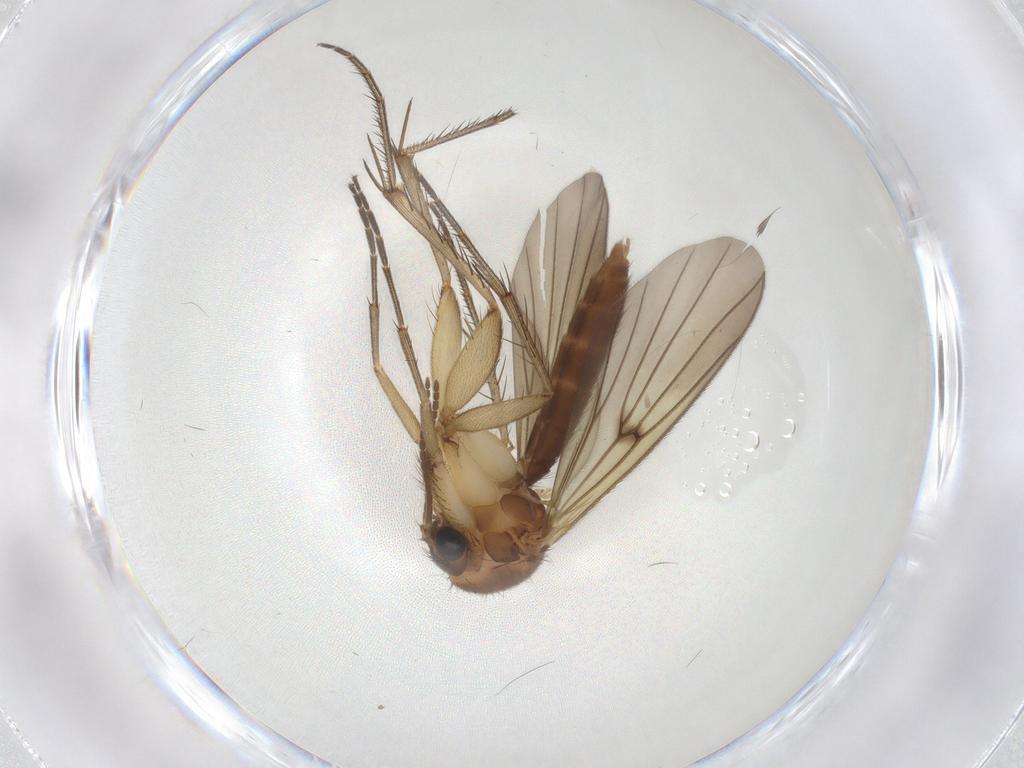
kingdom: Animalia
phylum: Arthropoda
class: Insecta
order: Diptera
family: Mycetophilidae
